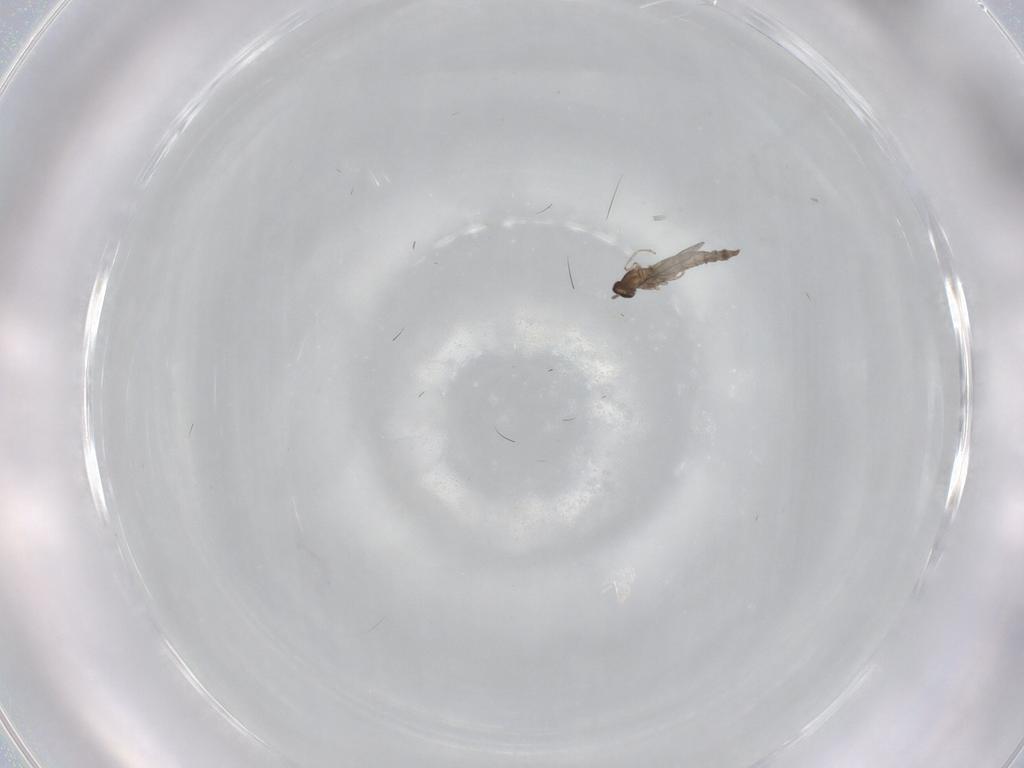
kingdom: Animalia
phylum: Arthropoda
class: Insecta
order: Diptera
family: Cecidomyiidae
